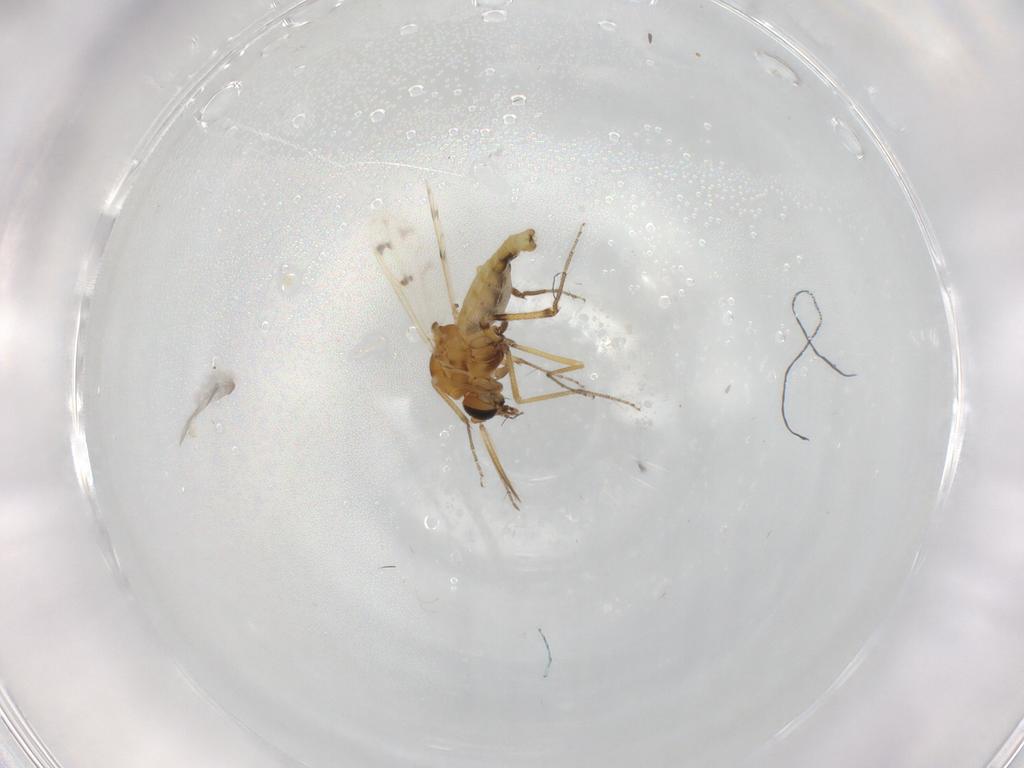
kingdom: Animalia
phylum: Arthropoda
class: Insecta
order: Diptera
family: Ceratopogonidae
